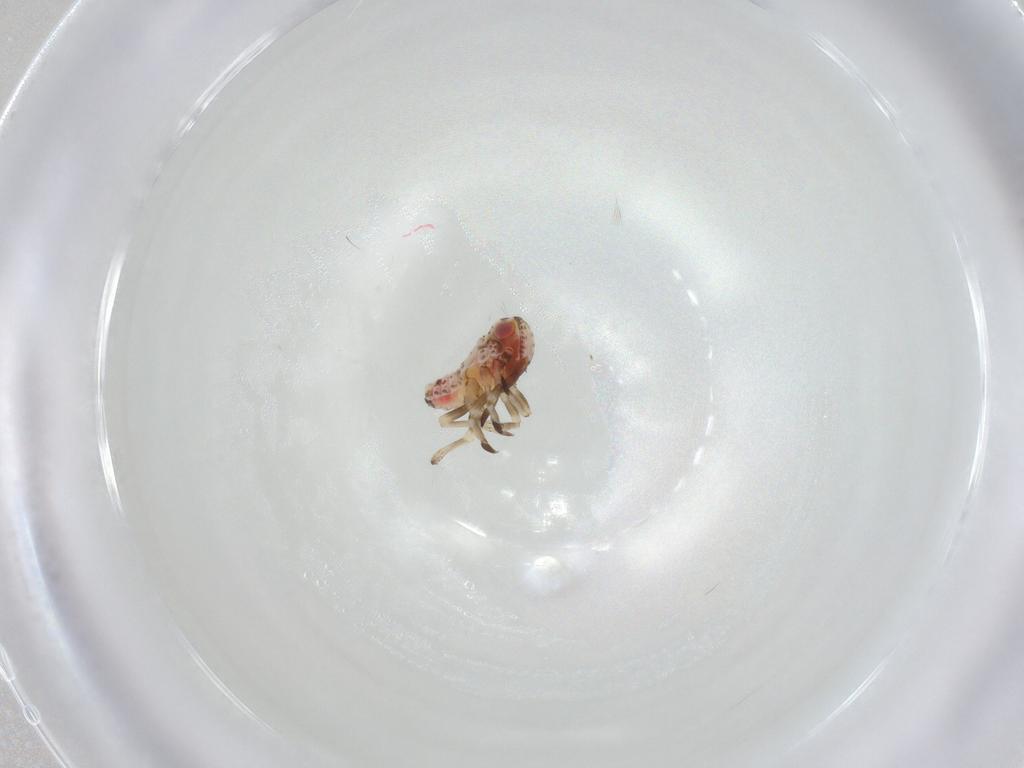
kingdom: Animalia
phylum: Arthropoda
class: Insecta
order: Hemiptera
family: Tropiduchidae
